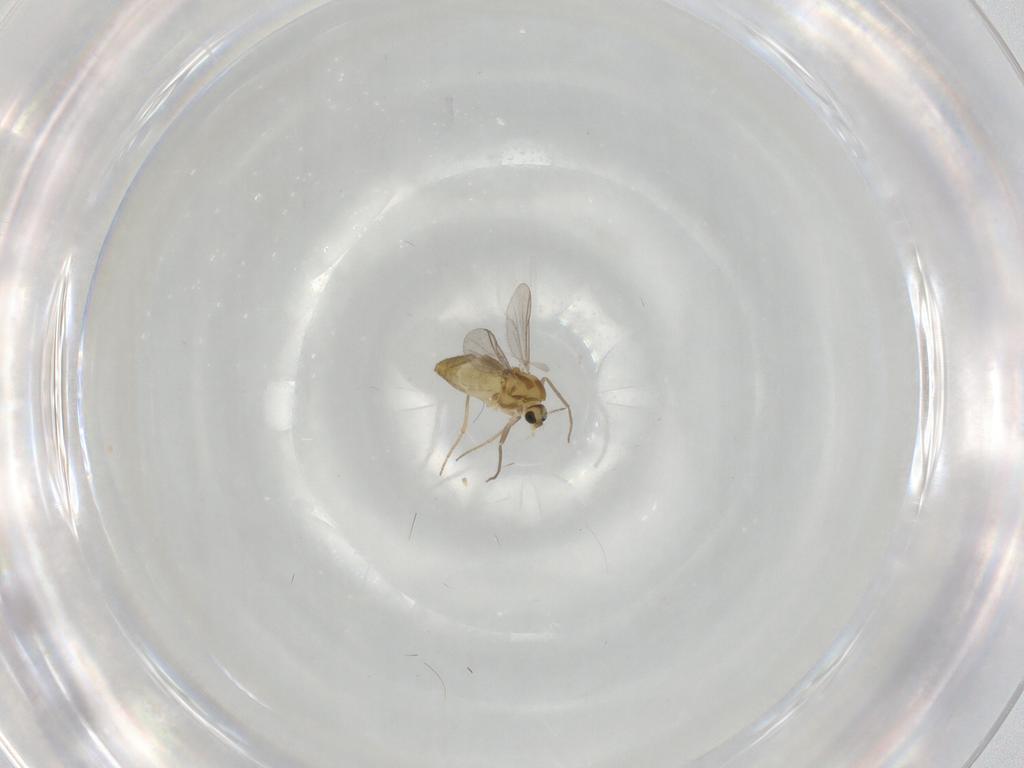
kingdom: Animalia
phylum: Arthropoda
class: Insecta
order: Diptera
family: Chironomidae
